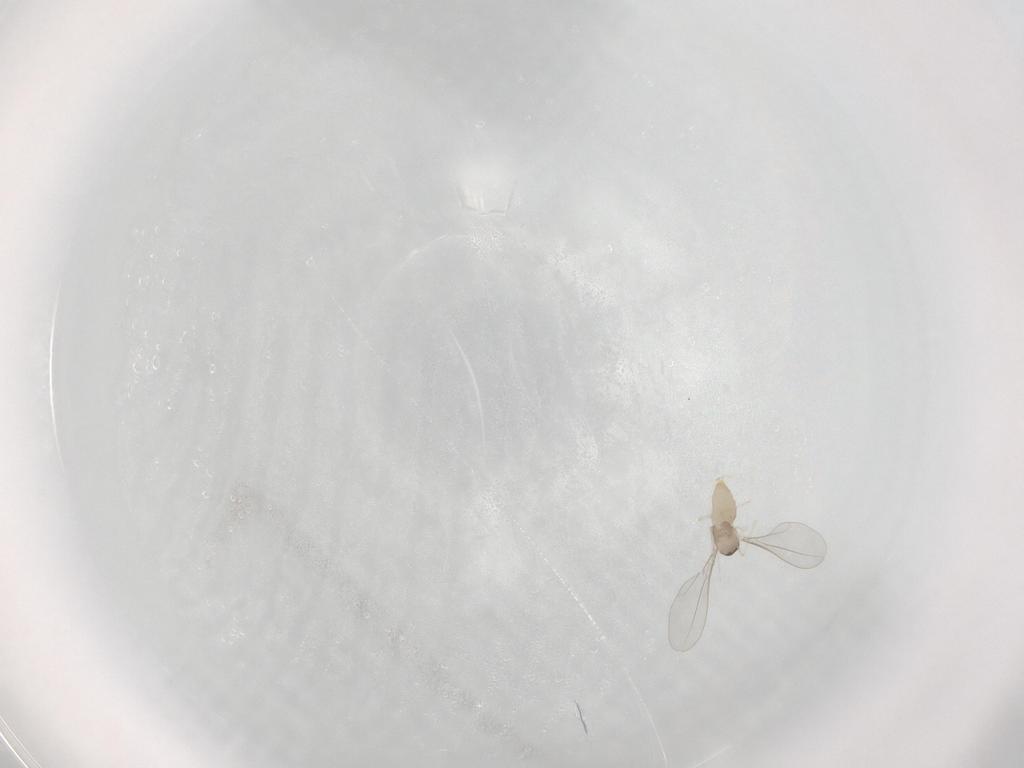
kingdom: Animalia
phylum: Arthropoda
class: Insecta
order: Diptera
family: Cecidomyiidae
